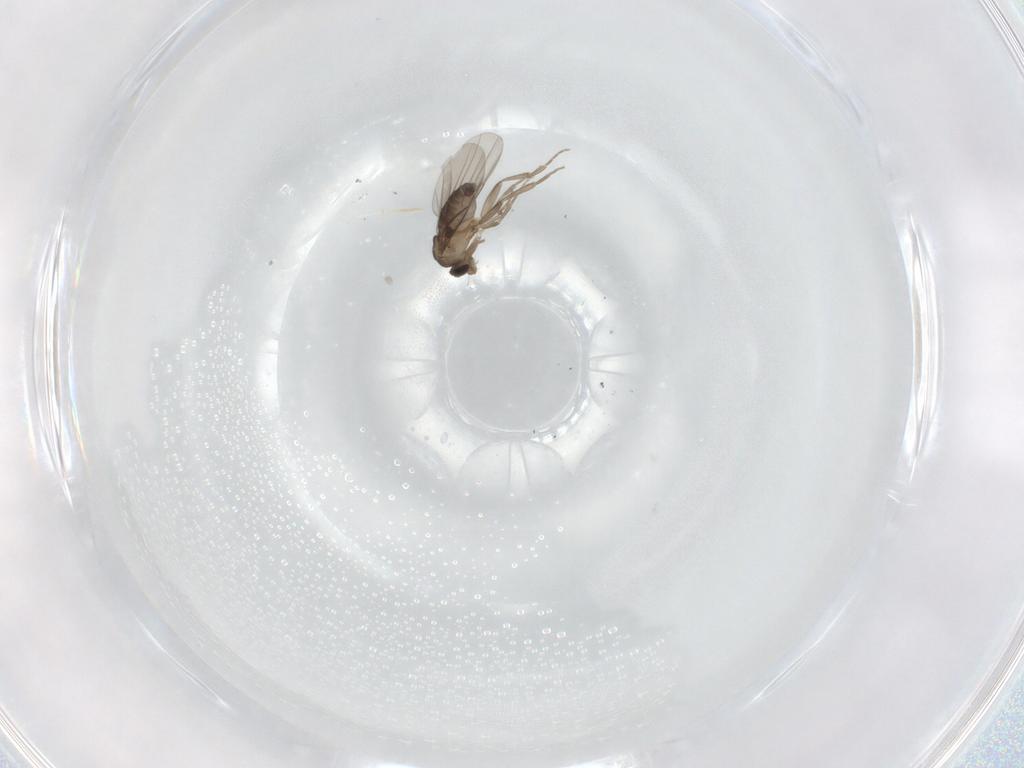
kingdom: Animalia
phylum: Arthropoda
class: Insecta
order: Diptera
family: Phoridae
